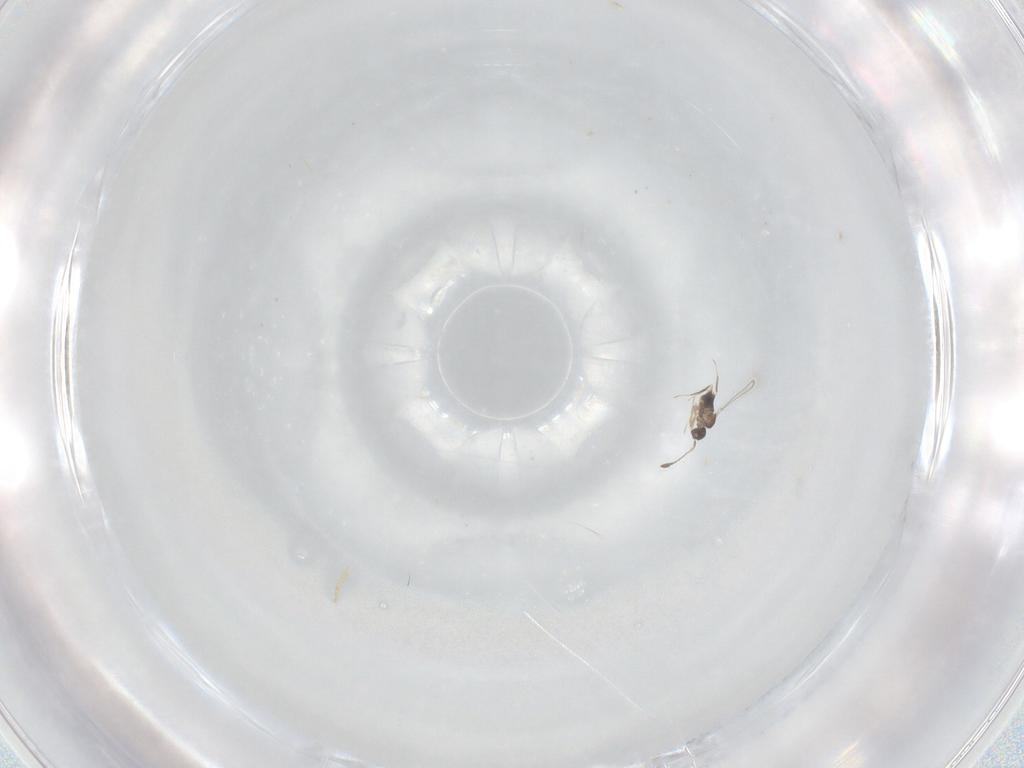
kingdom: Animalia
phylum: Arthropoda
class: Insecta
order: Hymenoptera
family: Mymaridae
